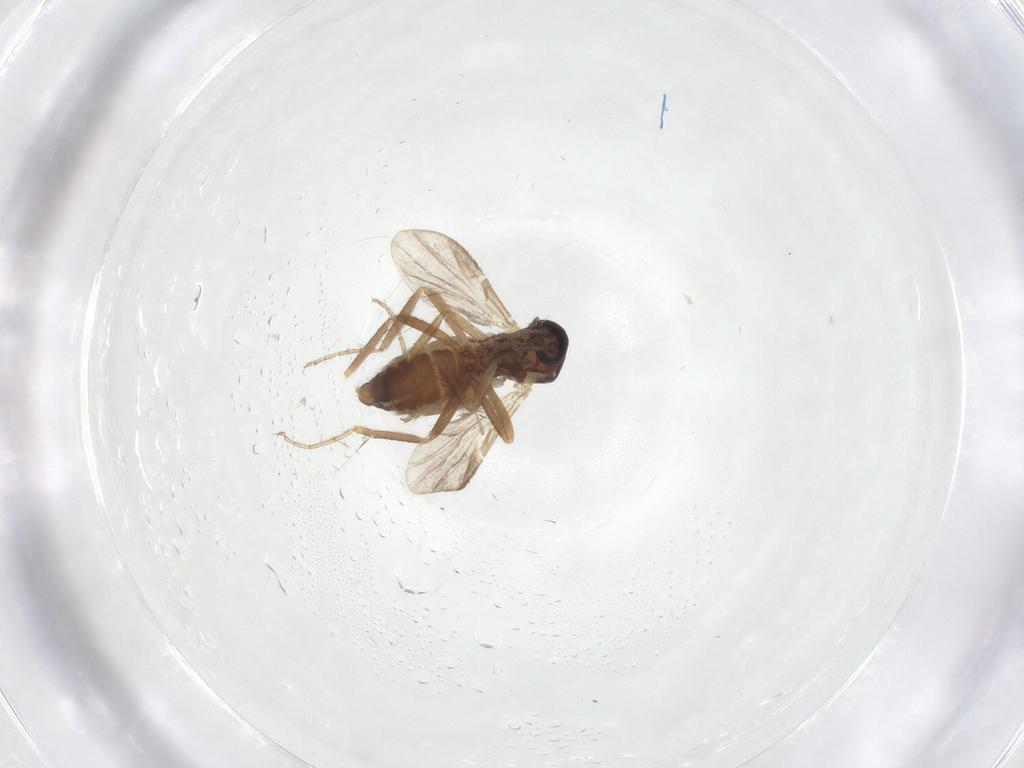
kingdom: Animalia
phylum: Arthropoda
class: Insecta
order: Diptera
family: Ceratopogonidae
